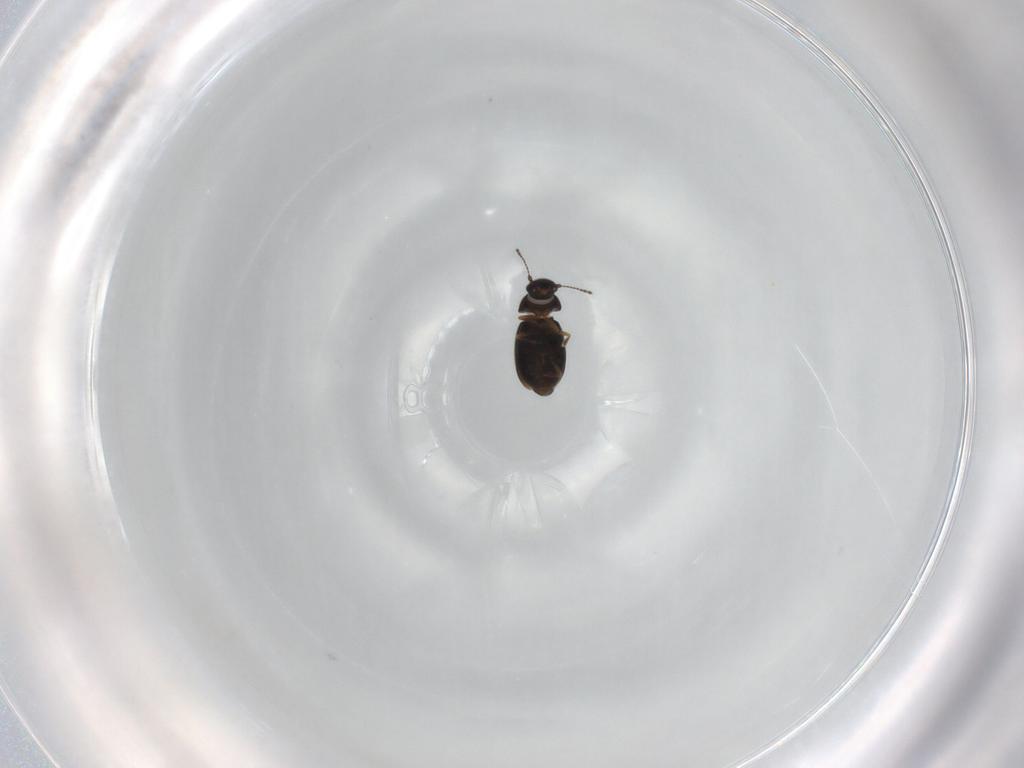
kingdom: Animalia
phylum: Arthropoda
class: Insecta
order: Coleoptera
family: Ptiliidae
